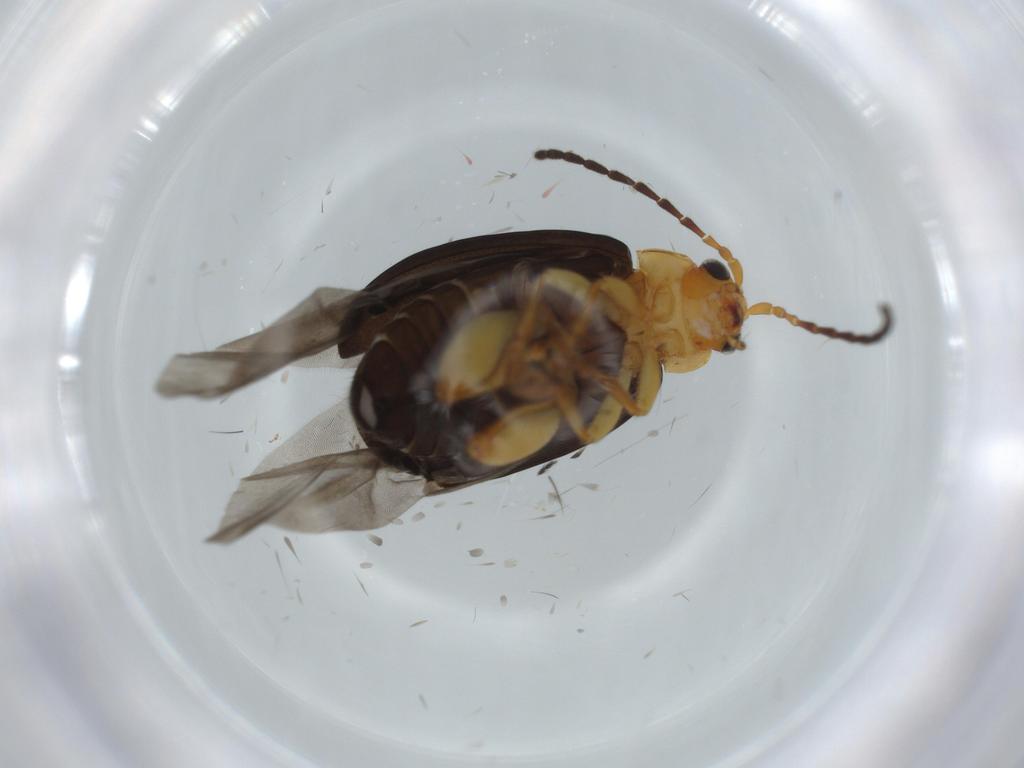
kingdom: Animalia
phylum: Arthropoda
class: Insecta
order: Coleoptera
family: Chrysomelidae
